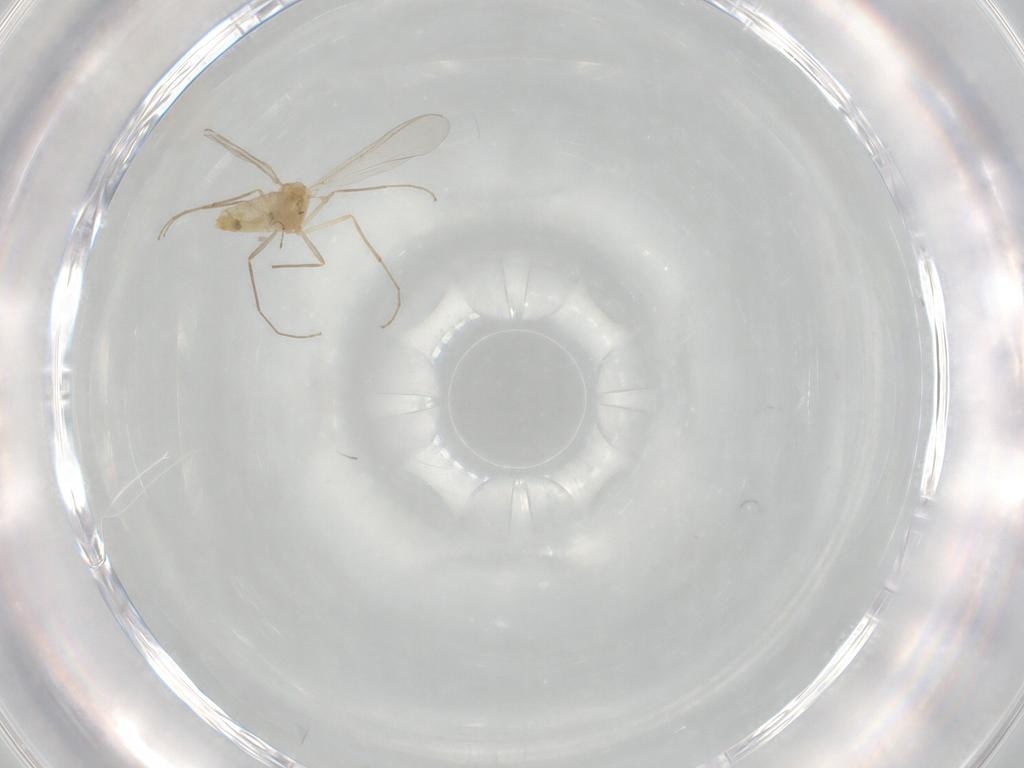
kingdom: Animalia
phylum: Arthropoda
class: Insecta
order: Diptera
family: Chironomidae
